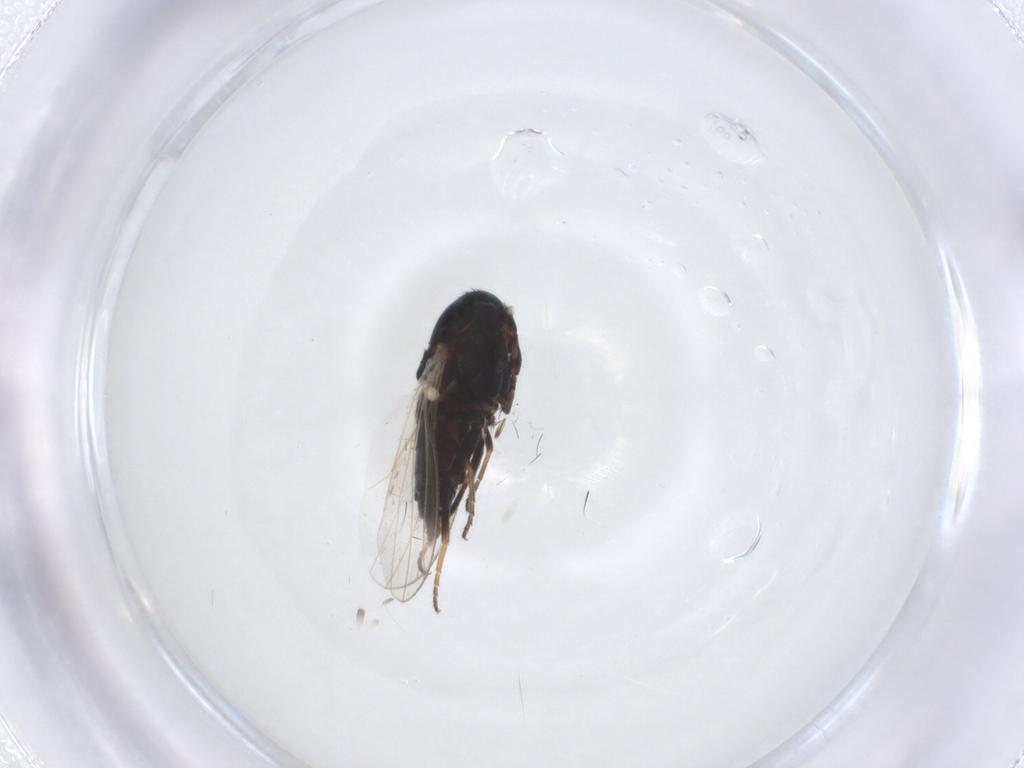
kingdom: Animalia
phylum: Arthropoda
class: Insecta
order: Diptera
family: Carnidae
